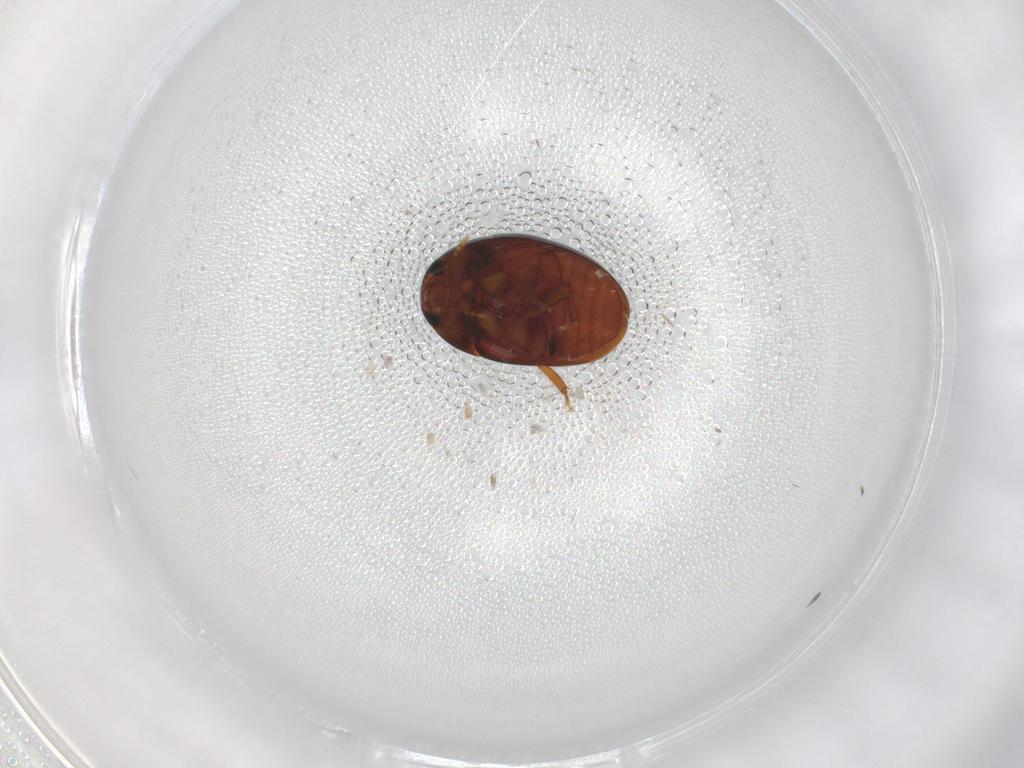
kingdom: Animalia
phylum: Arthropoda
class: Insecta
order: Coleoptera
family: Phalacridae
